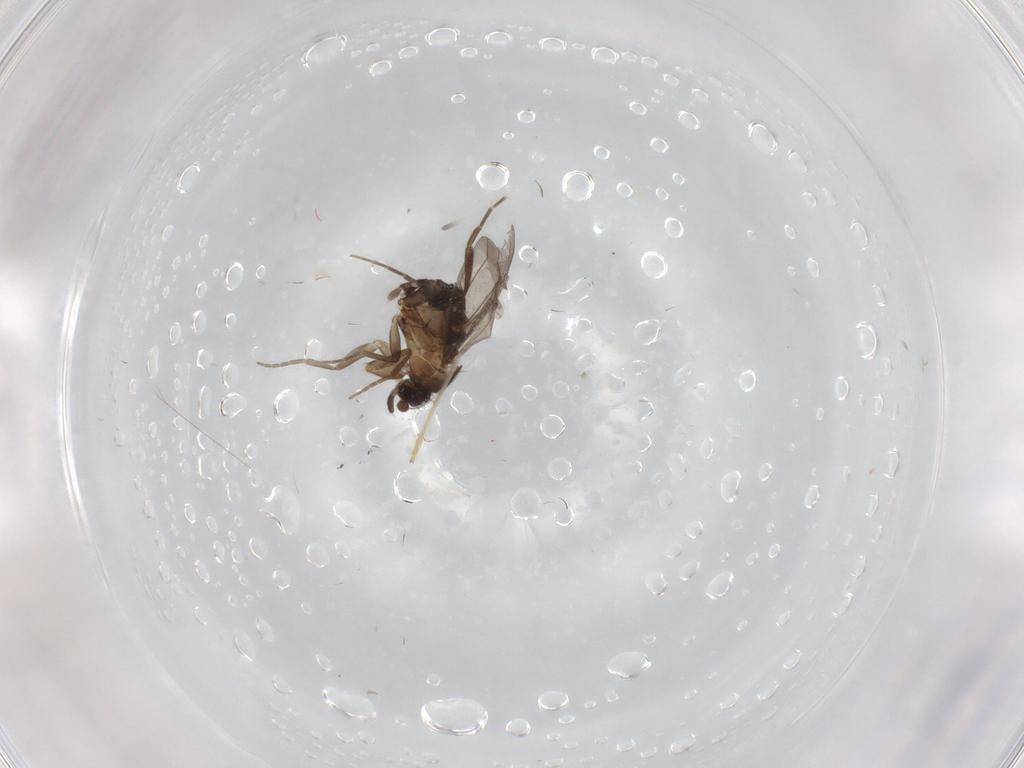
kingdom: Animalia
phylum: Arthropoda
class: Insecta
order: Diptera
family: Phoridae
